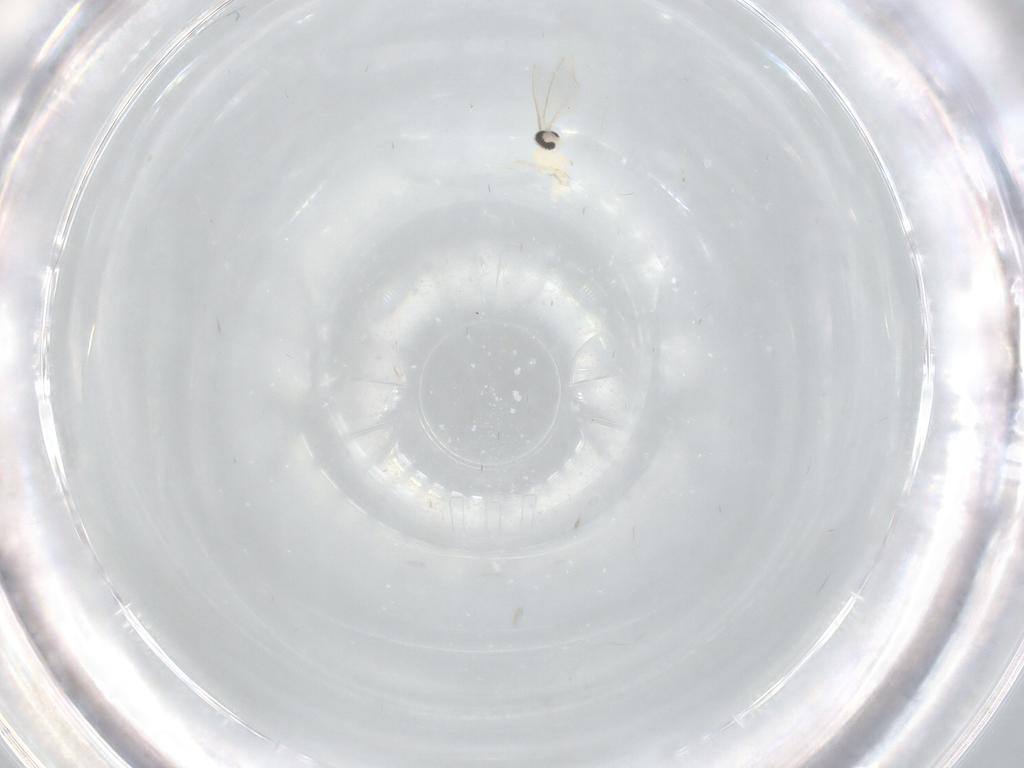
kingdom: Animalia
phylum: Arthropoda
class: Insecta
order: Diptera
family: Cecidomyiidae
